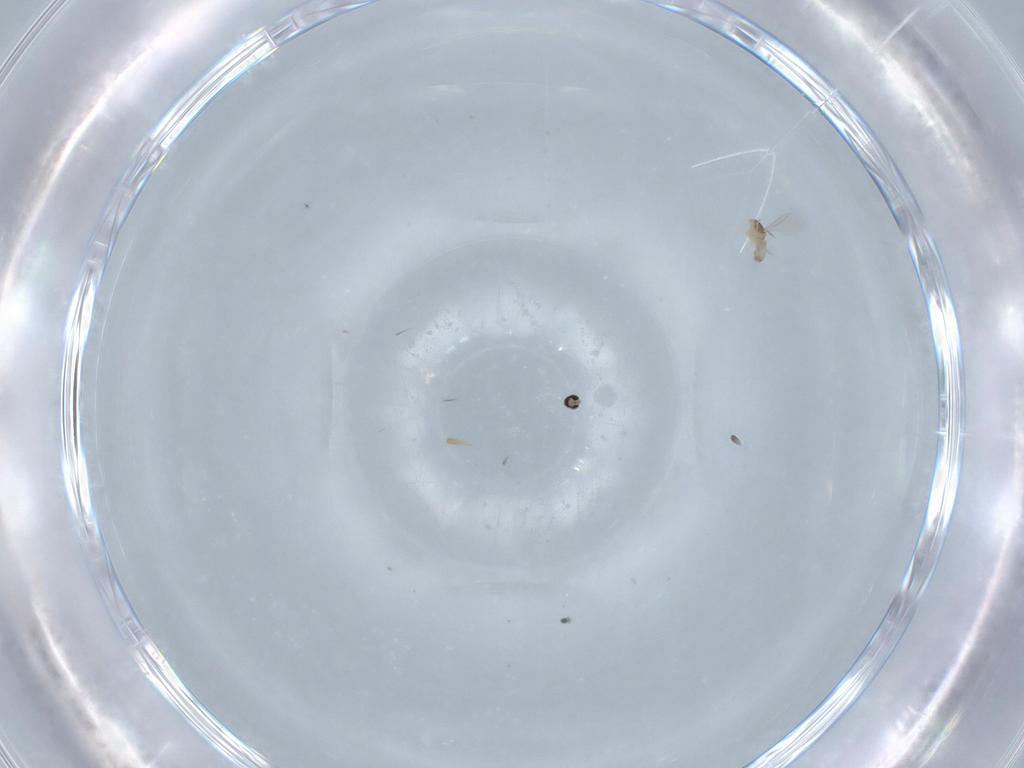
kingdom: Animalia
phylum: Arthropoda
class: Insecta
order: Diptera
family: Cecidomyiidae
